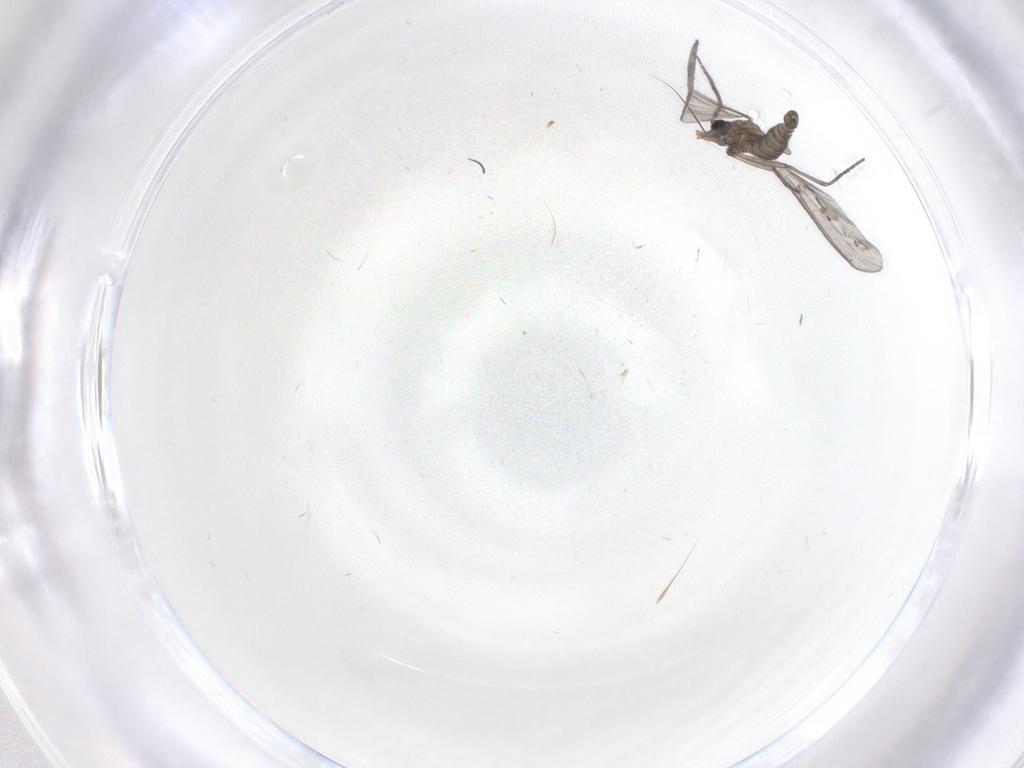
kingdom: Animalia
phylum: Arthropoda
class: Insecta
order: Diptera
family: Sciaridae
